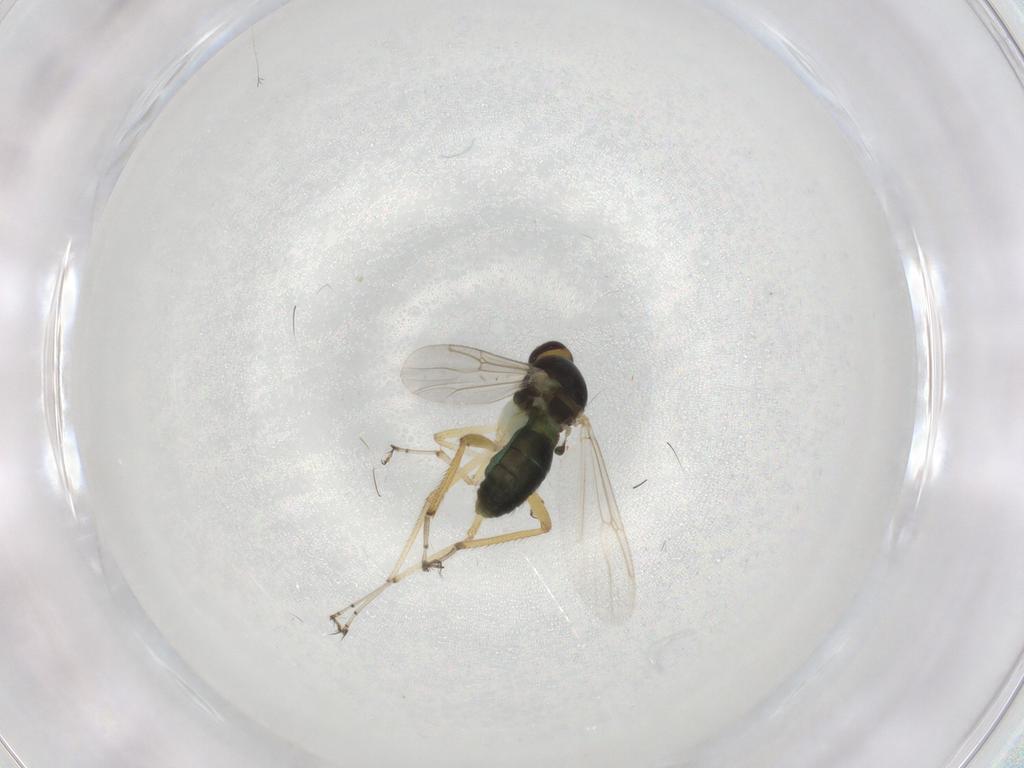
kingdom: Animalia
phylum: Arthropoda
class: Insecta
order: Diptera
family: Ceratopogonidae
